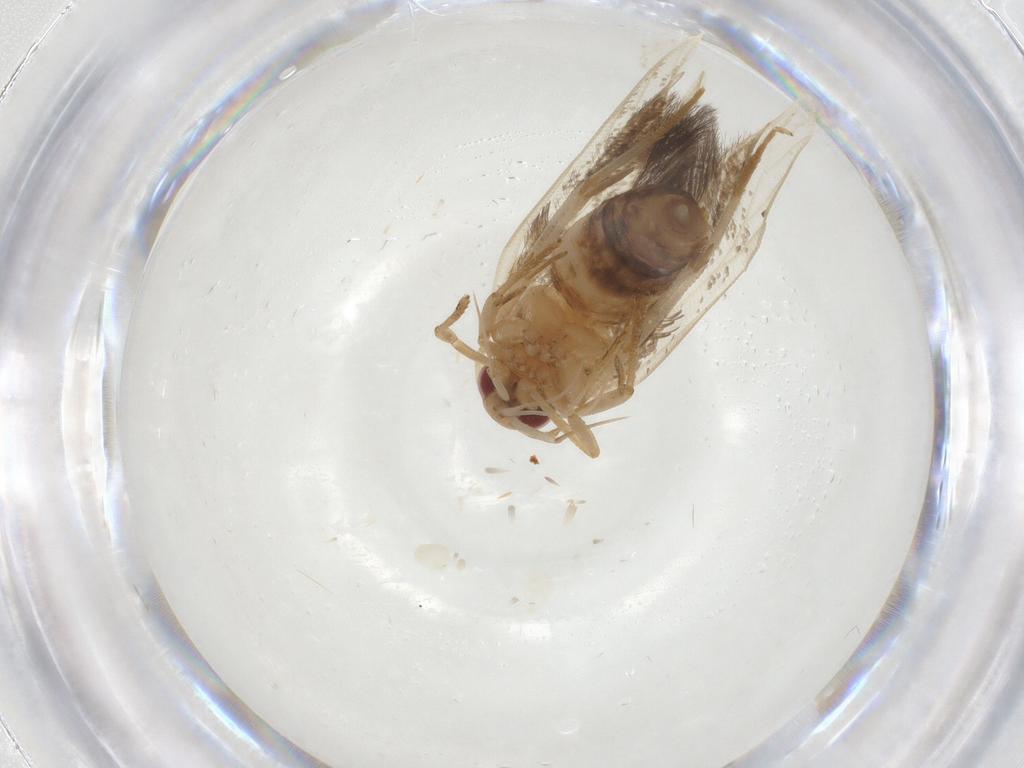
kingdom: Animalia
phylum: Arthropoda
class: Insecta
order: Lepidoptera
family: Cosmopterigidae
